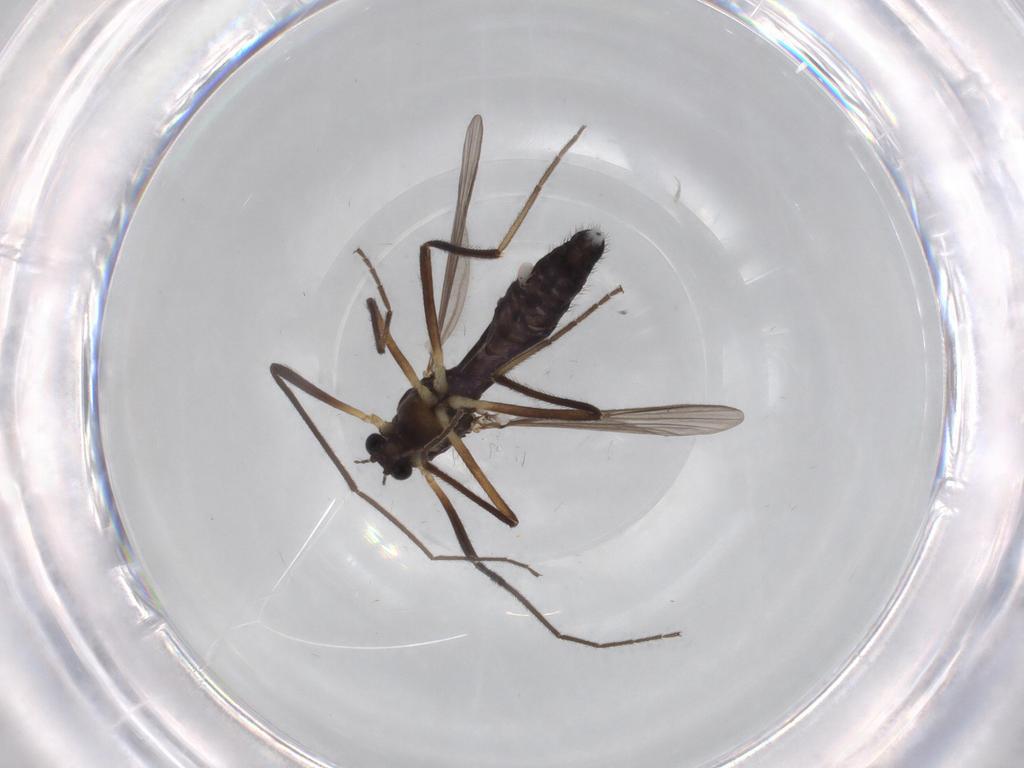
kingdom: Animalia
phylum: Arthropoda
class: Insecta
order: Diptera
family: Chironomidae
